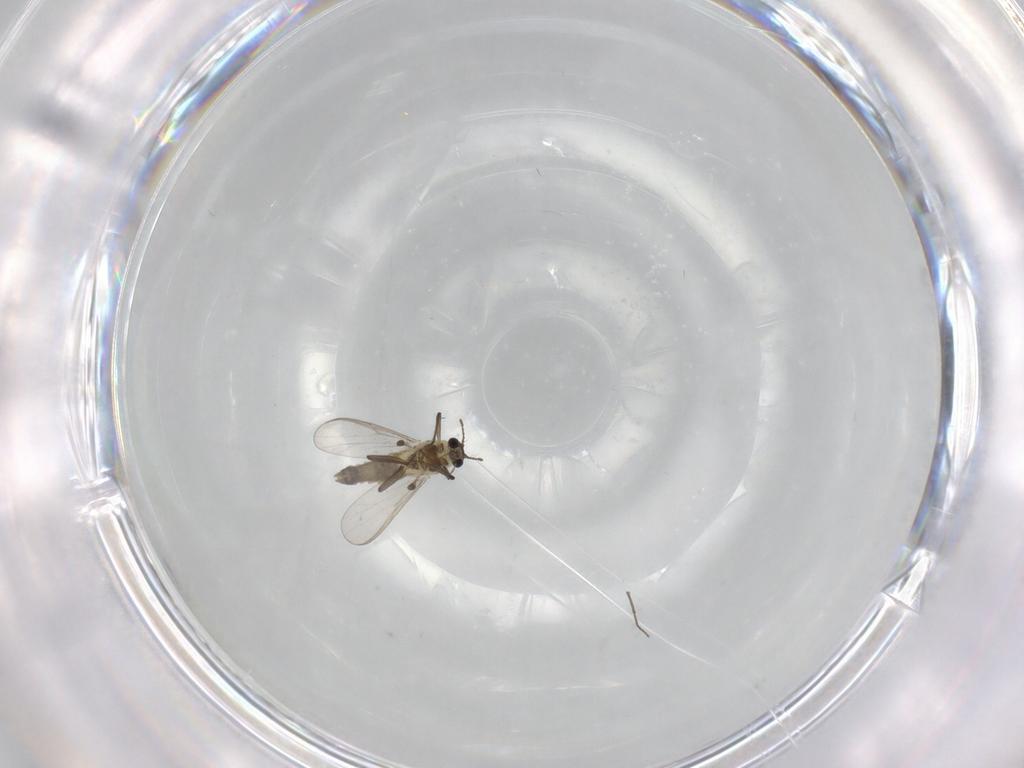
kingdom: Animalia
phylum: Arthropoda
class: Insecta
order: Diptera
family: Chironomidae
